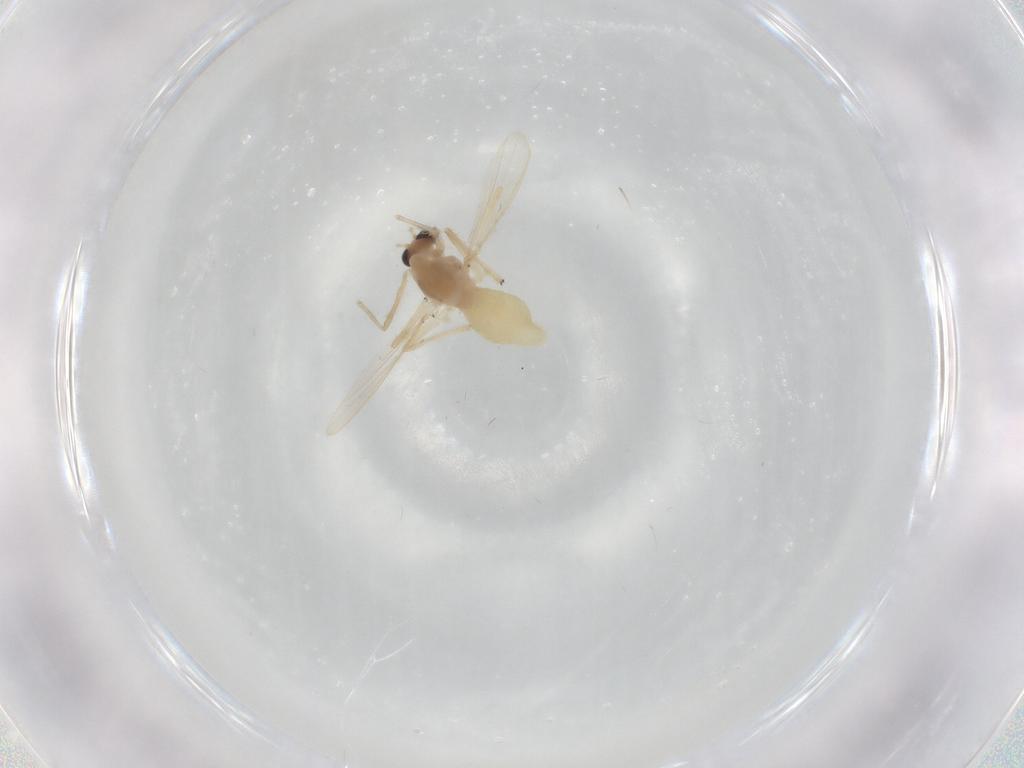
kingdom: Animalia
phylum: Arthropoda
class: Insecta
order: Diptera
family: Chironomidae
